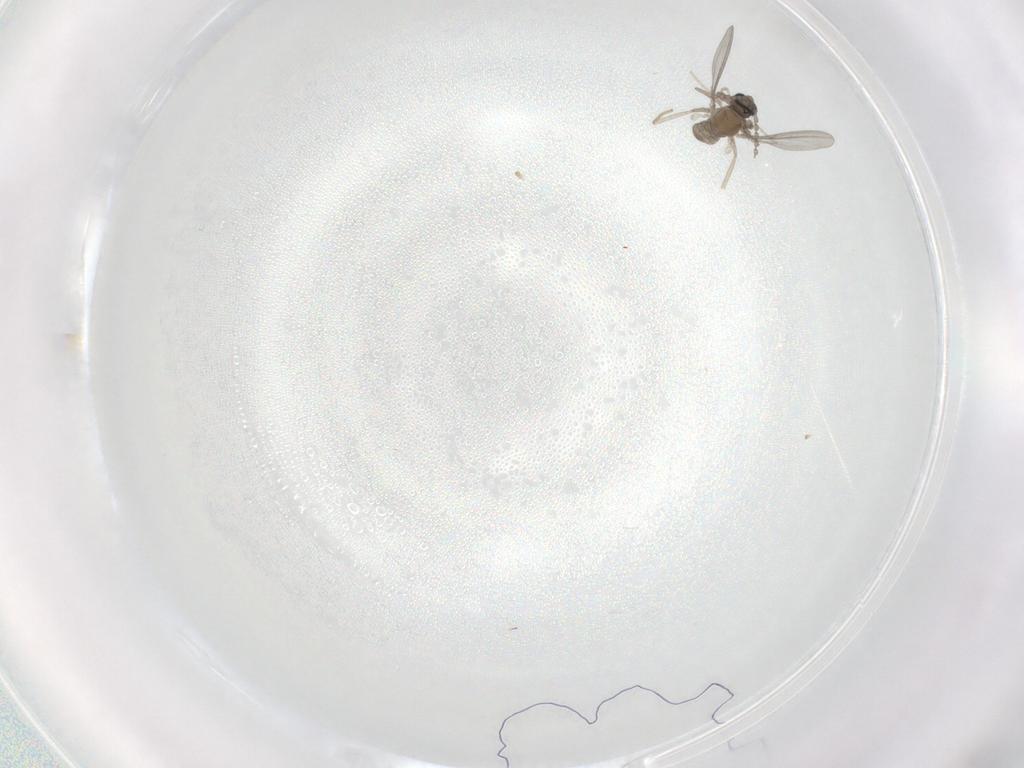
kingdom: Animalia
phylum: Arthropoda
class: Insecta
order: Diptera
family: Cecidomyiidae
